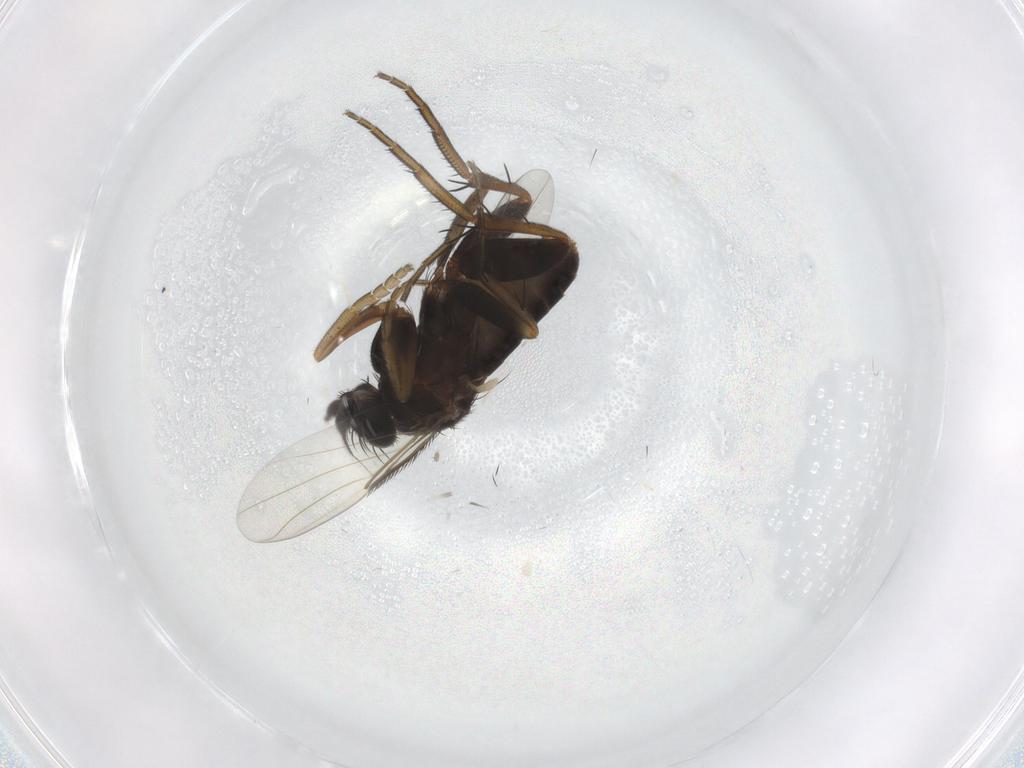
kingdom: Animalia
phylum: Arthropoda
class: Insecta
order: Diptera
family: Phoridae
